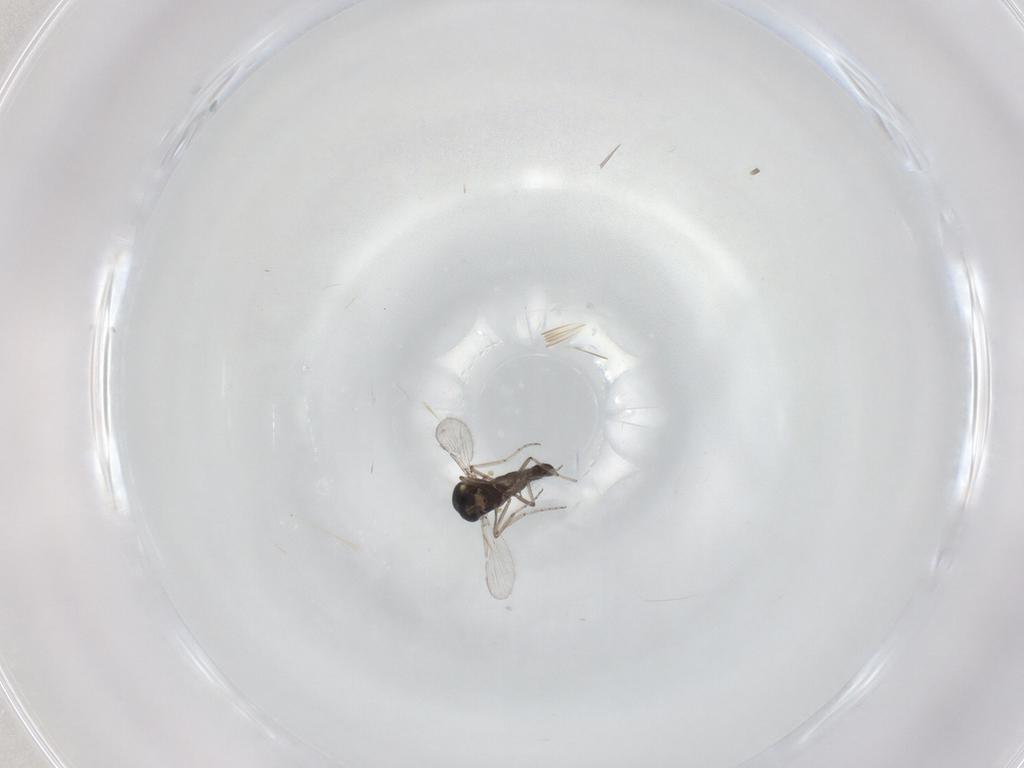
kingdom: Animalia
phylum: Arthropoda
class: Insecta
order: Diptera
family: Ceratopogonidae
